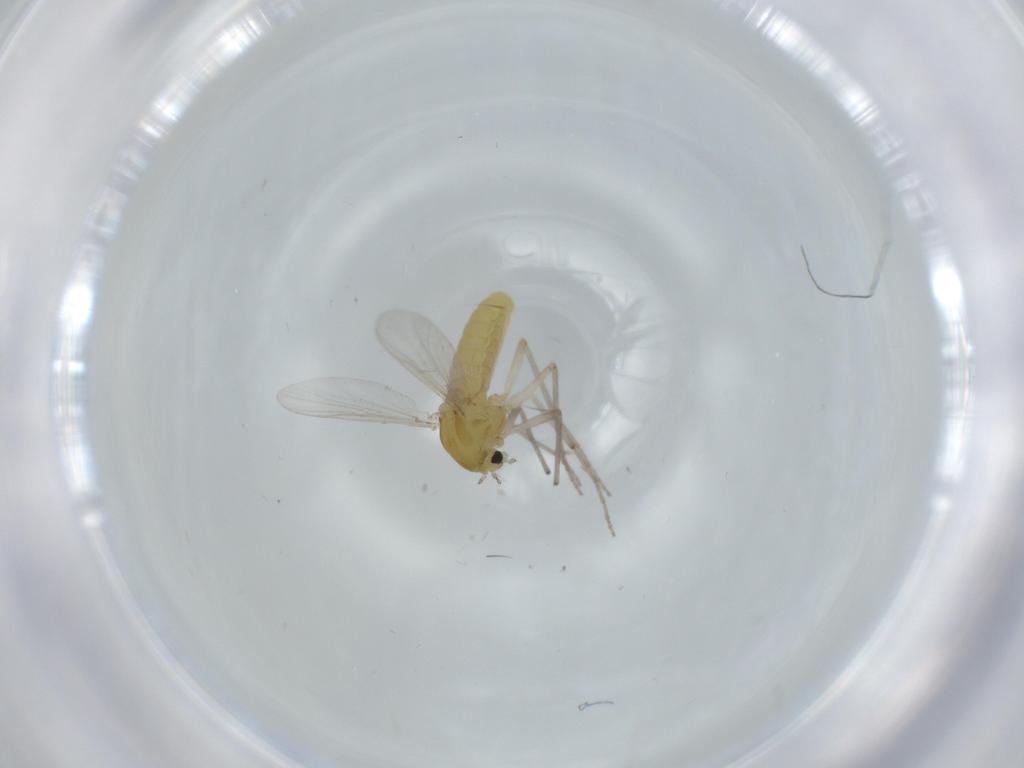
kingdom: Animalia
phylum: Arthropoda
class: Insecta
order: Diptera
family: Chironomidae
